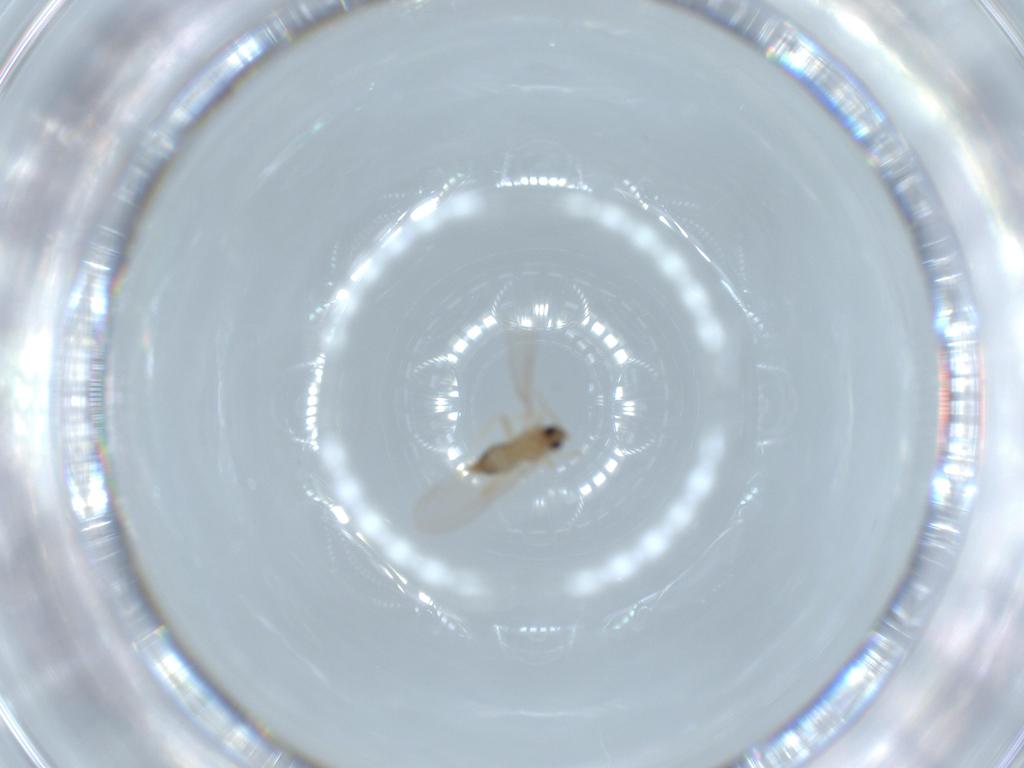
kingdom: Animalia
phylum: Arthropoda
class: Insecta
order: Diptera
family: Cecidomyiidae
